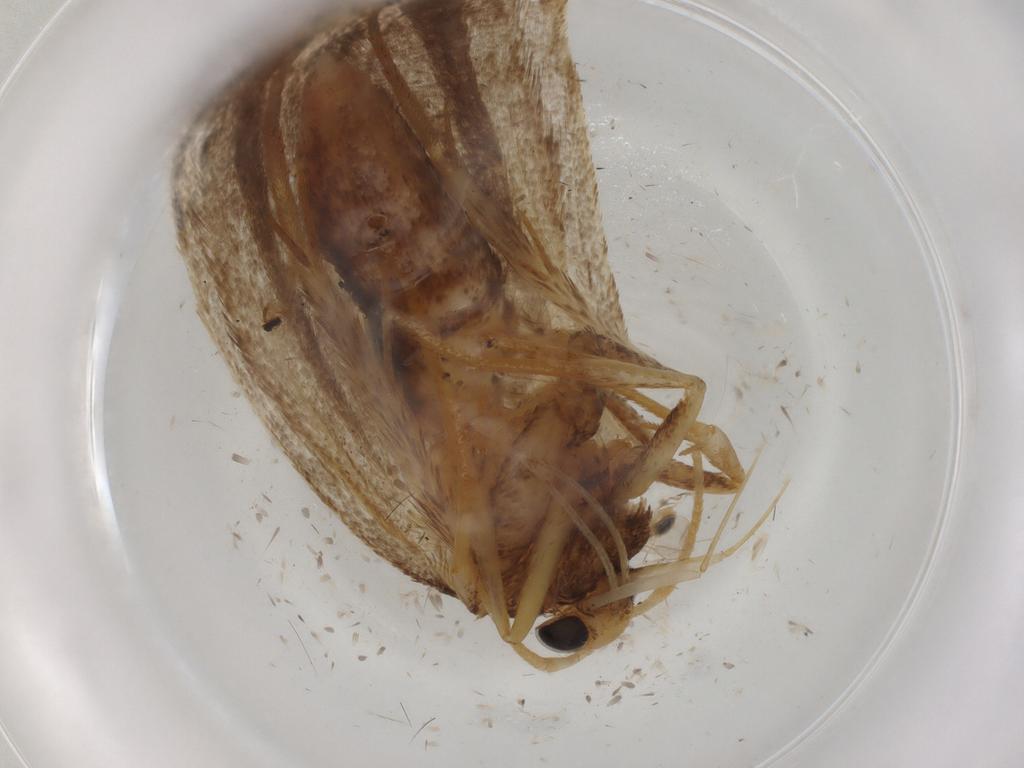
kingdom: Animalia
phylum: Arthropoda
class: Insecta
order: Lepidoptera
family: Lecithoceridae
